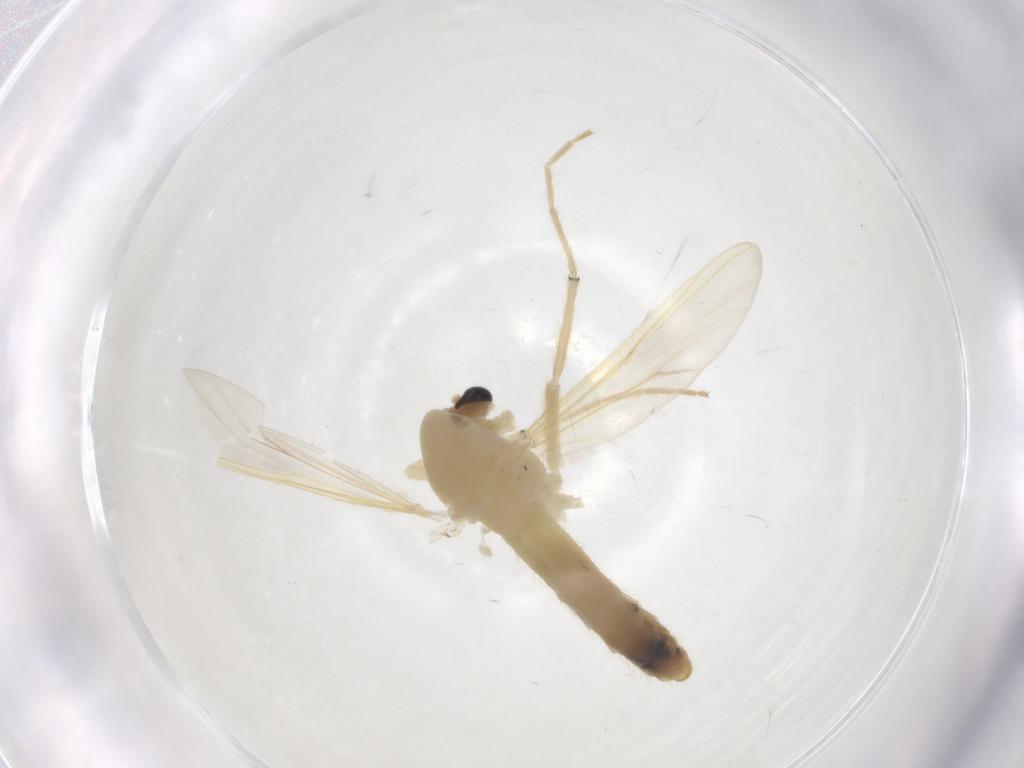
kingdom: Animalia
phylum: Arthropoda
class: Insecta
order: Diptera
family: Chironomidae
